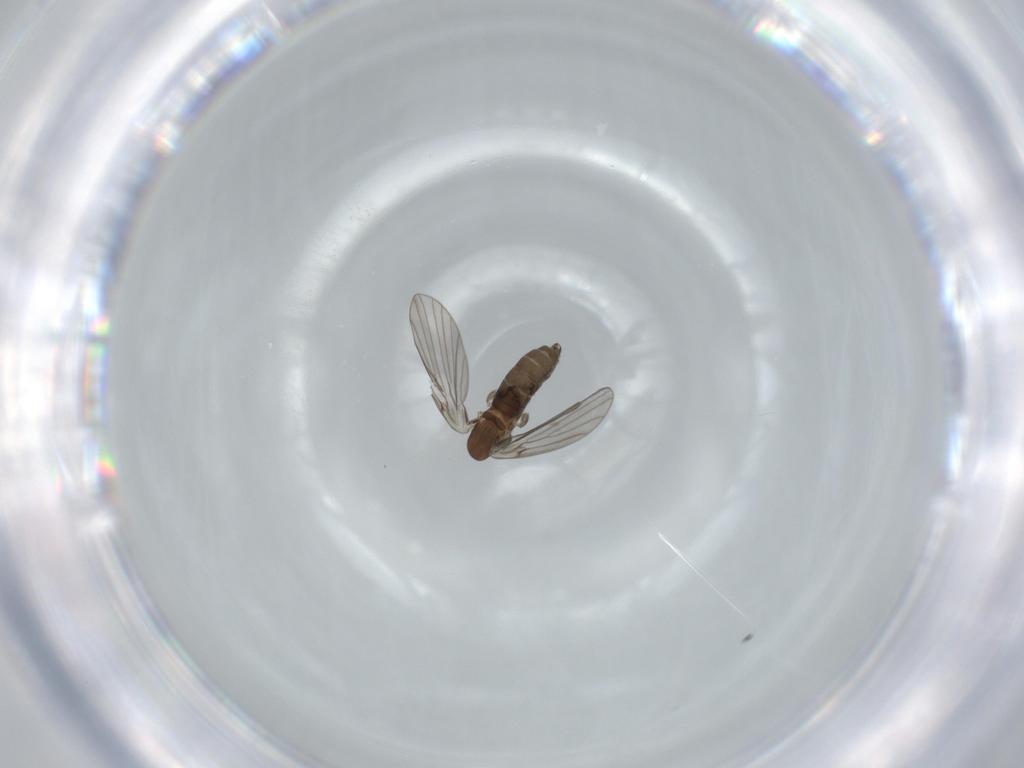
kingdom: Animalia
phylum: Arthropoda
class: Insecta
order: Diptera
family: Psychodidae
